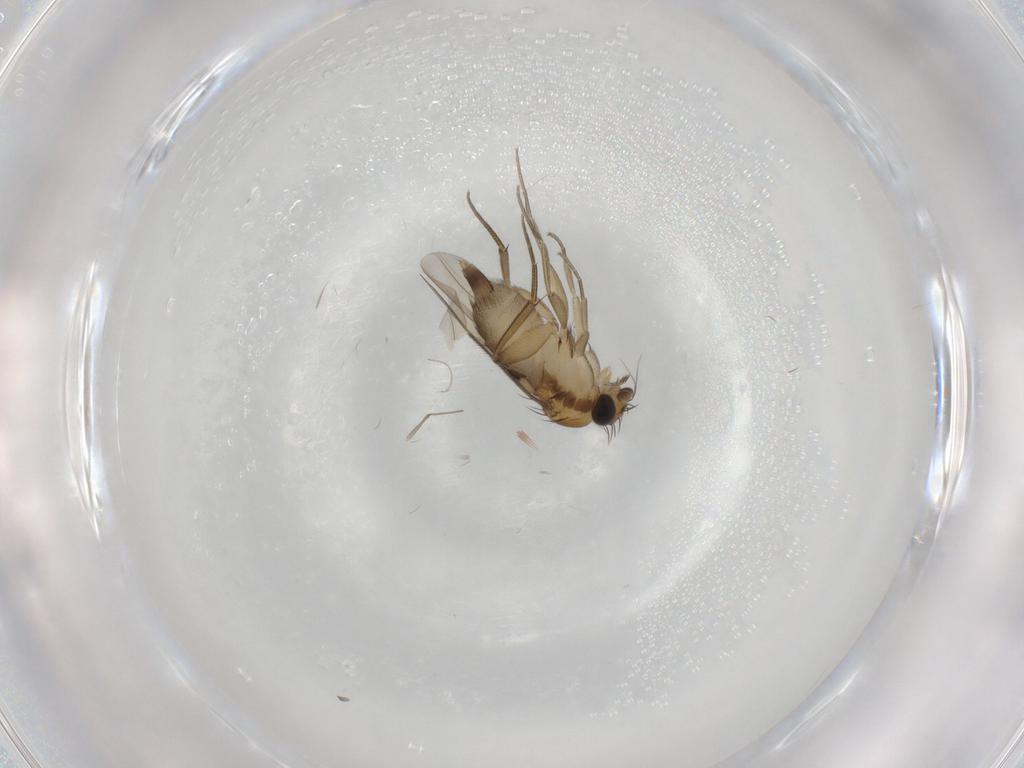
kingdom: Animalia
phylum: Arthropoda
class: Insecta
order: Diptera
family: Phoridae
